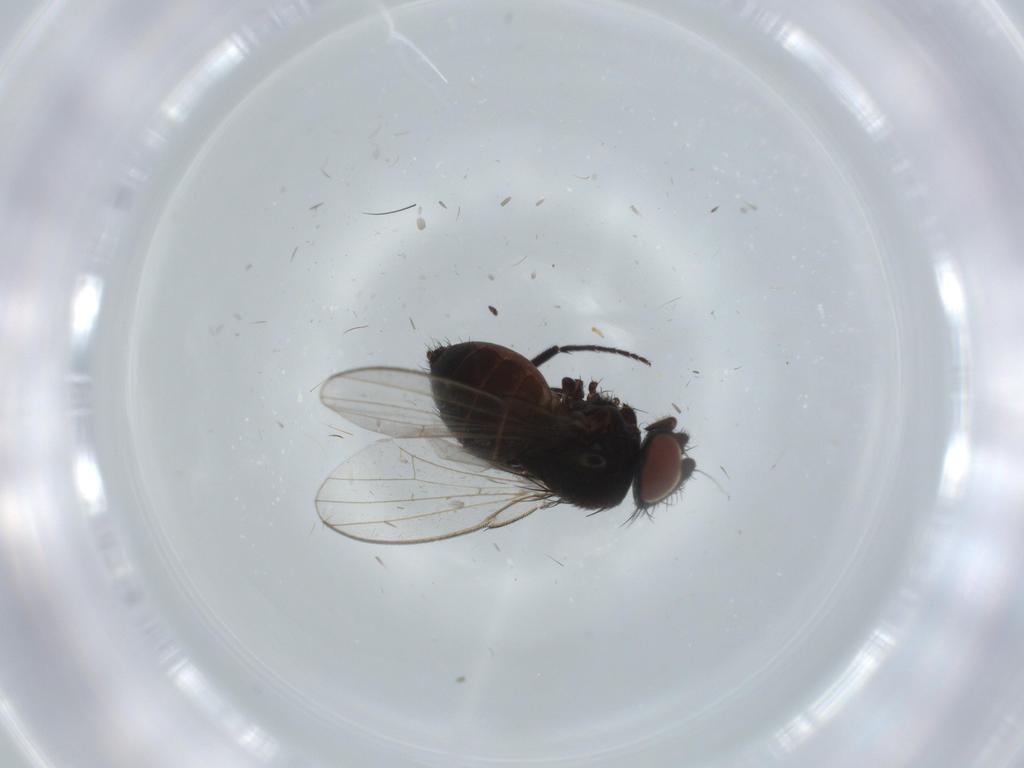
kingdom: Animalia
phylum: Arthropoda
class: Insecta
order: Diptera
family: Milichiidae
